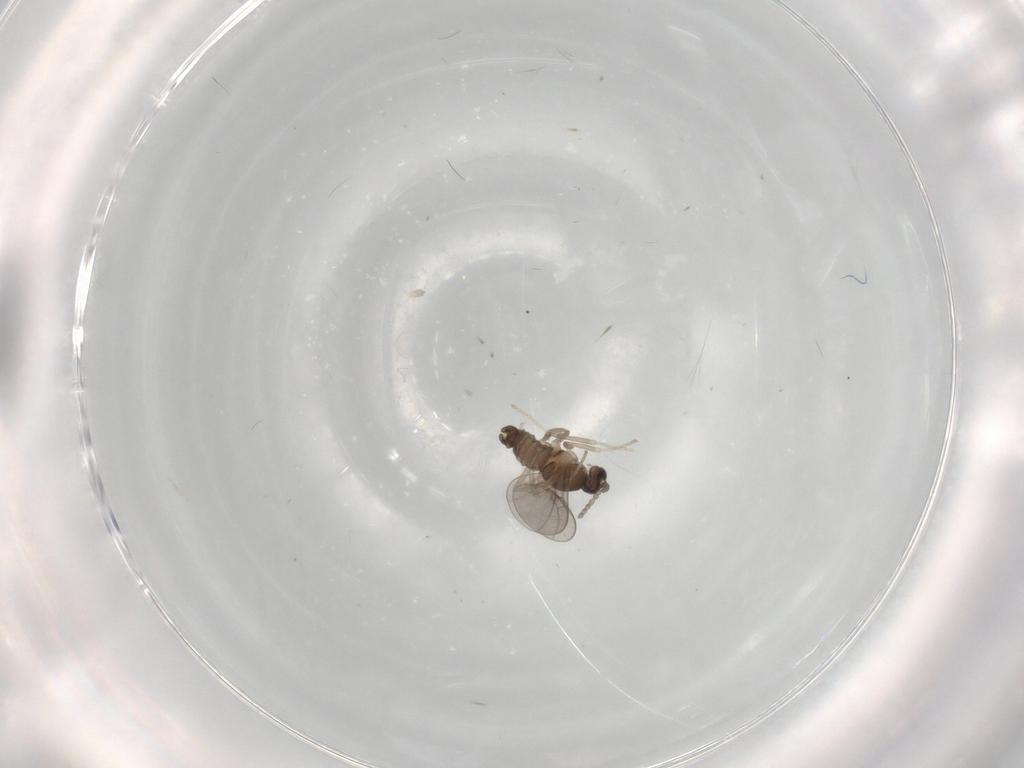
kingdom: Animalia
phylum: Arthropoda
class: Insecta
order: Diptera
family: Cecidomyiidae
